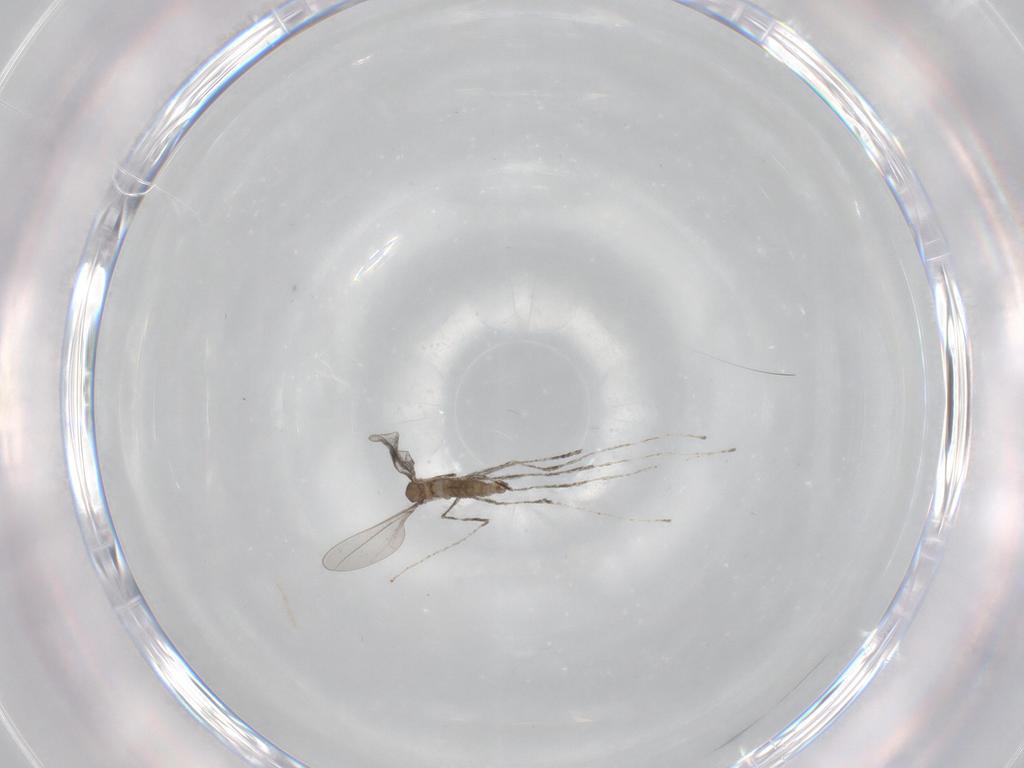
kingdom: Animalia
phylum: Arthropoda
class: Insecta
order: Diptera
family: Cecidomyiidae
